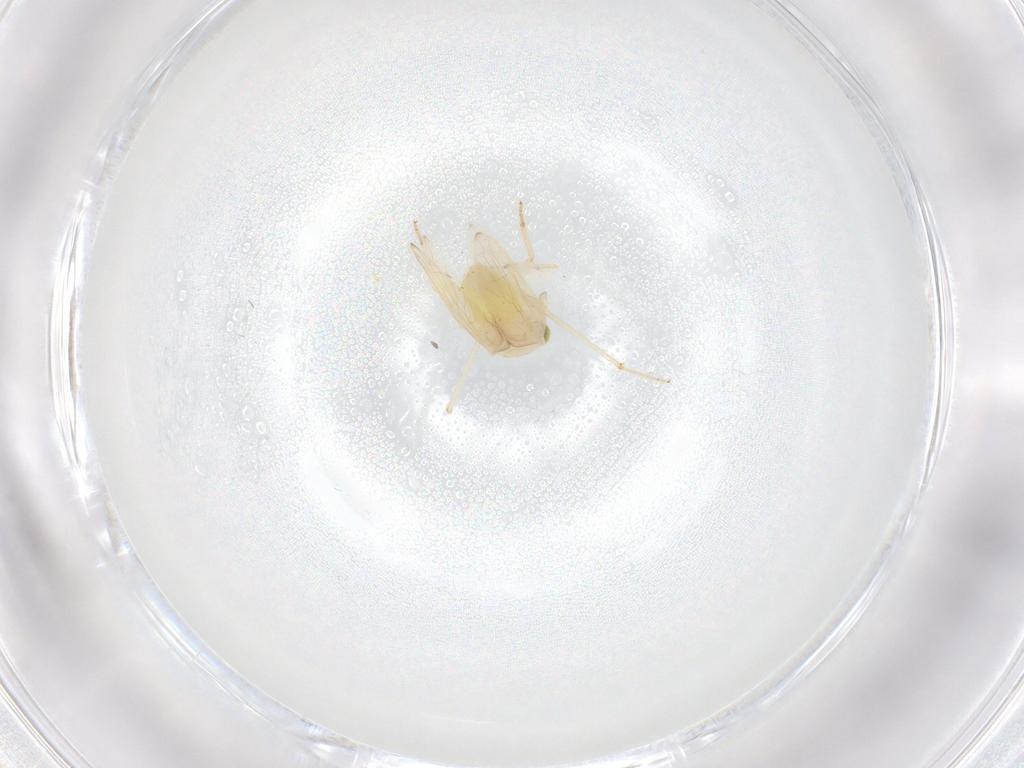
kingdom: Animalia
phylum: Arthropoda
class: Insecta
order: Psocodea
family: Lepidopsocidae
